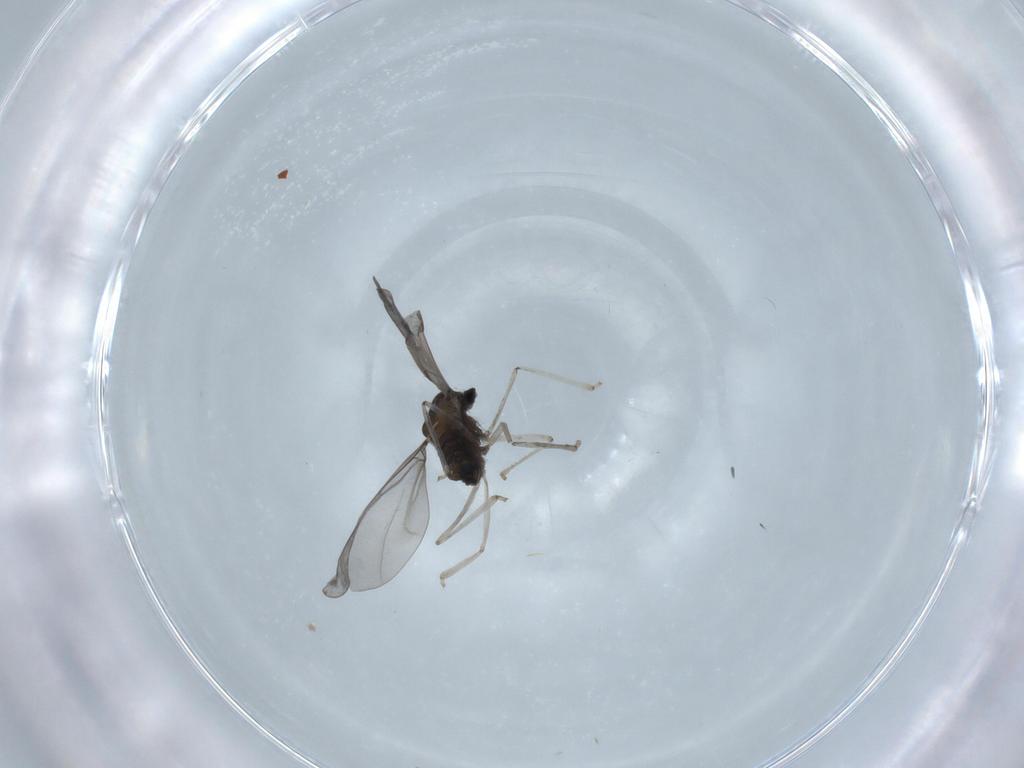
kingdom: Animalia
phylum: Arthropoda
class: Insecta
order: Diptera
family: Cecidomyiidae
